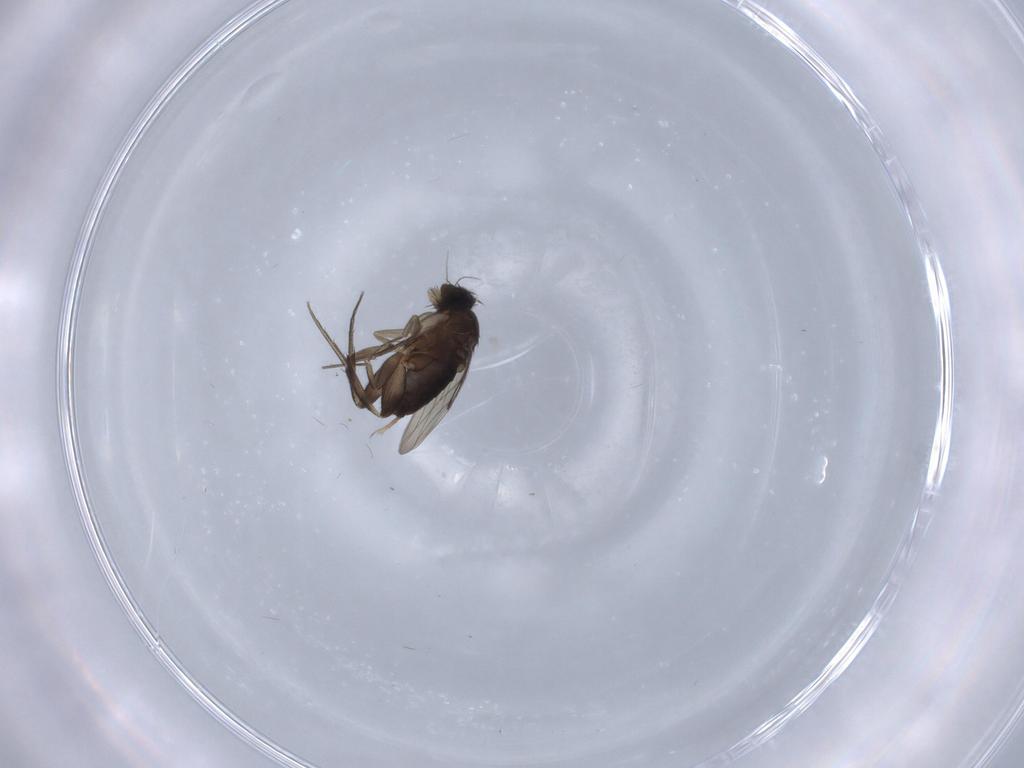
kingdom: Animalia
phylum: Arthropoda
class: Insecta
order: Diptera
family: Phoridae
